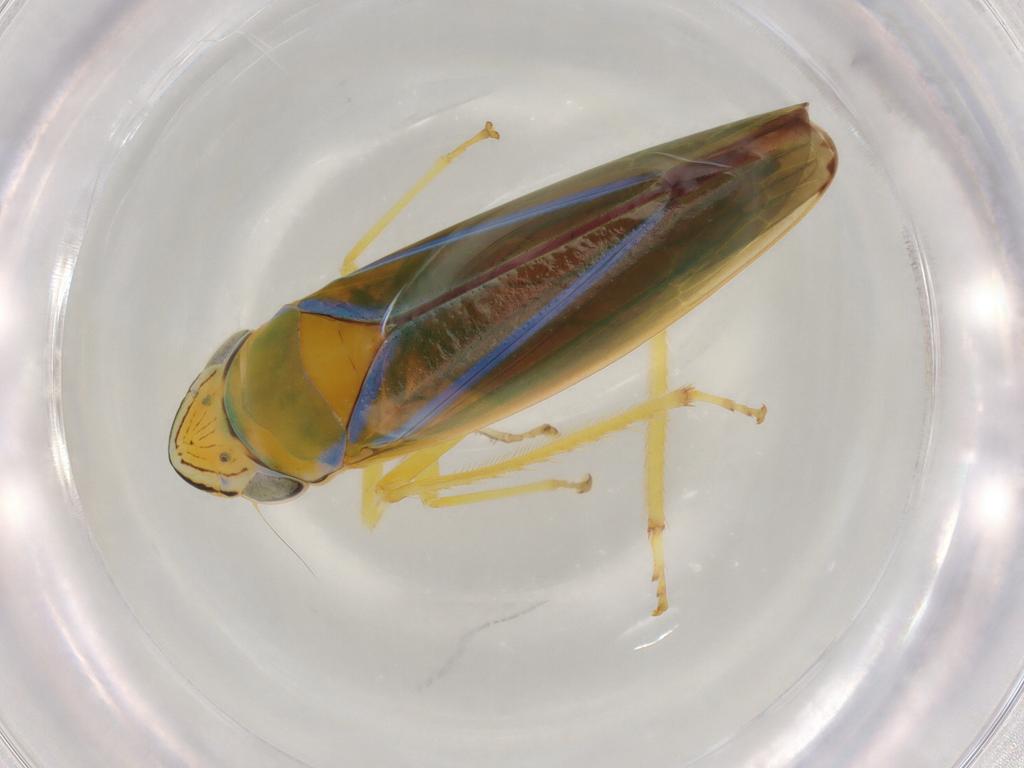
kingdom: Animalia
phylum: Arthropoda
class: Insecta
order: Hemiptera
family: Cicadellidae
